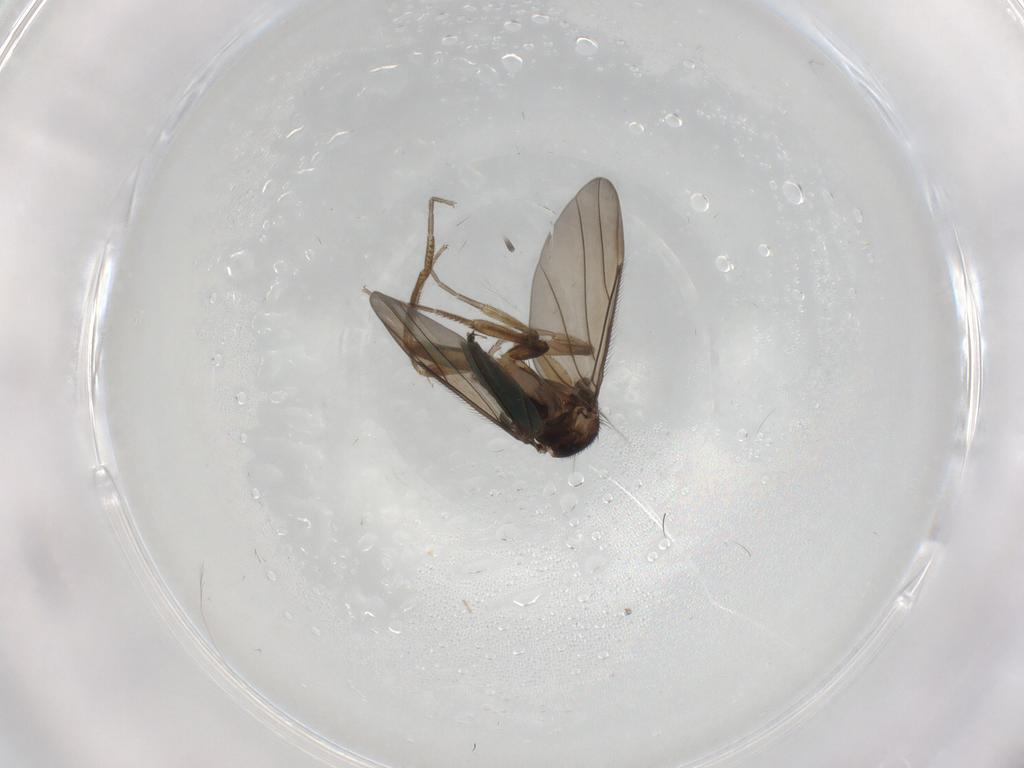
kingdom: Animalia
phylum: Arthropoda
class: Insecta
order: Diptera
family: Phoridae
